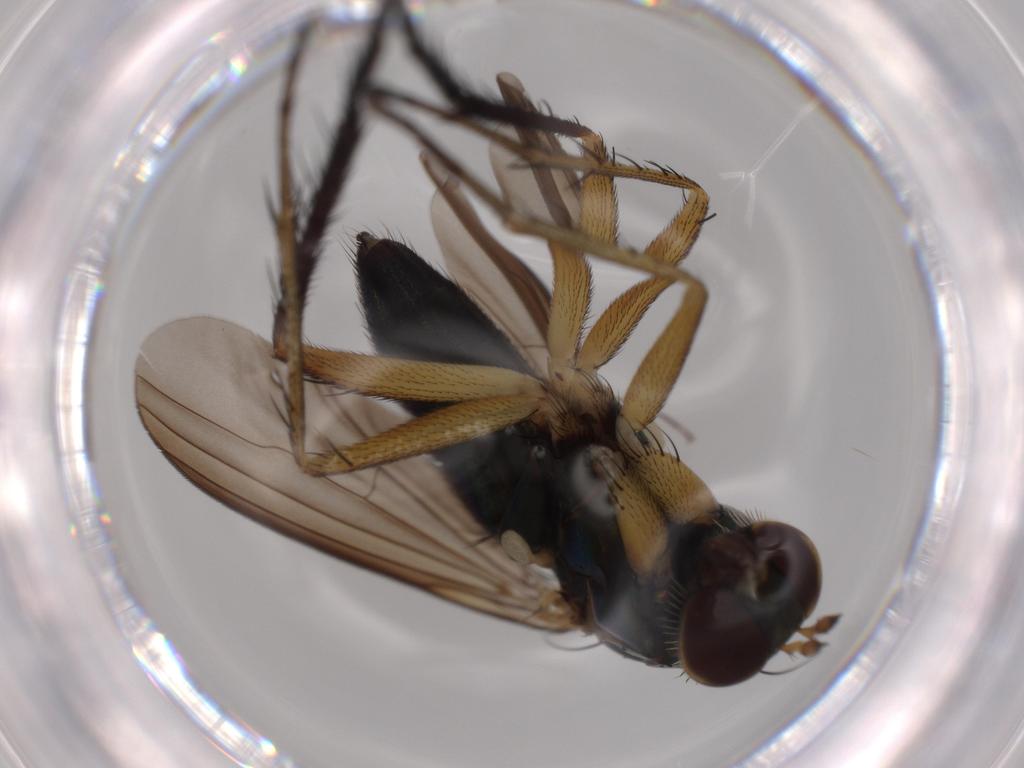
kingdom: Animalia
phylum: Arthropoda
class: Insecta
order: Diptera
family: Dolichopodidae
